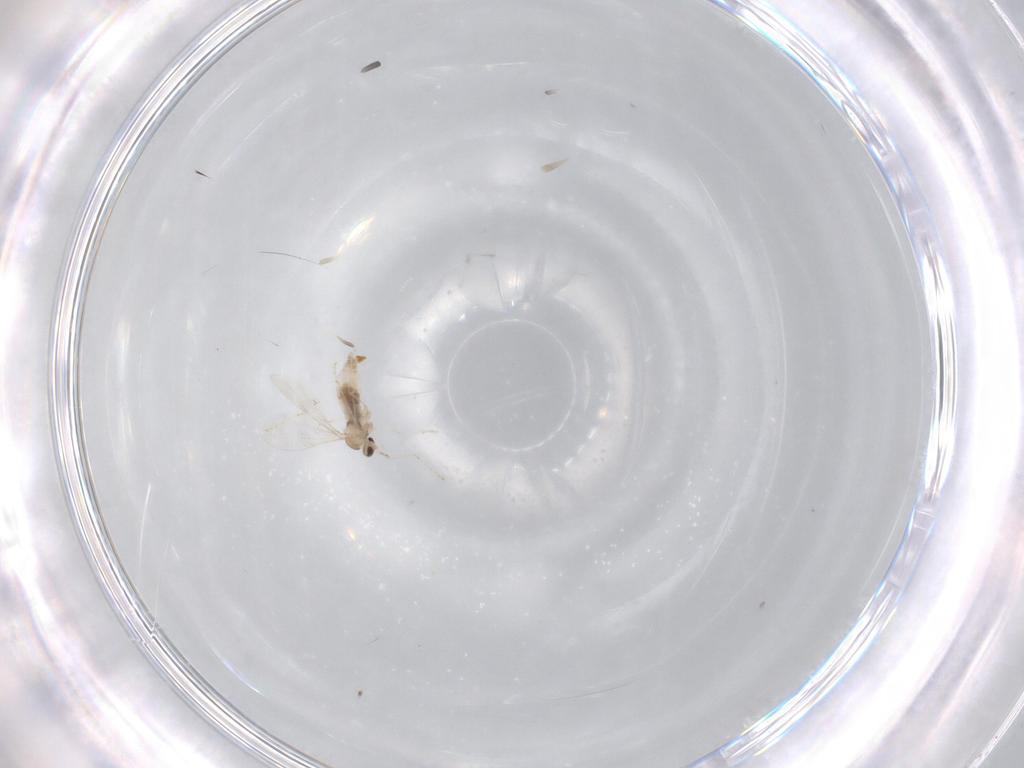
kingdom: Animalia
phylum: Arthropoda
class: Insecta
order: Diptera
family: Cecidomyiidae
